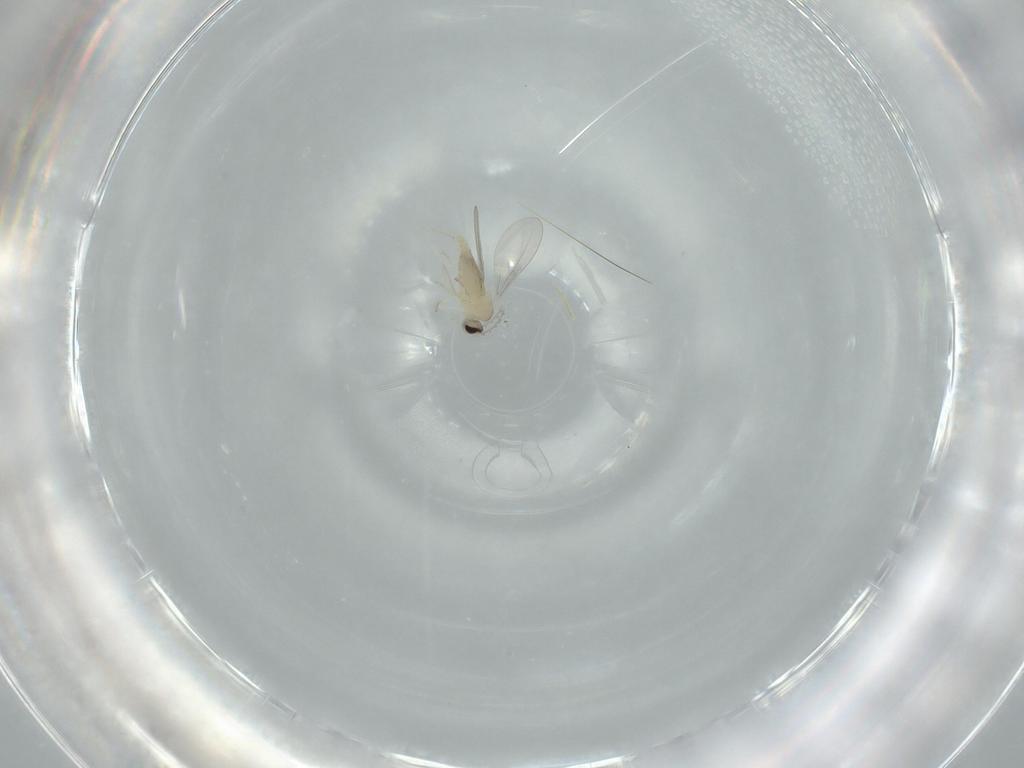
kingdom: Animalia
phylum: Arthropoda
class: Insecta
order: Diptera
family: Cecidomyiidae
